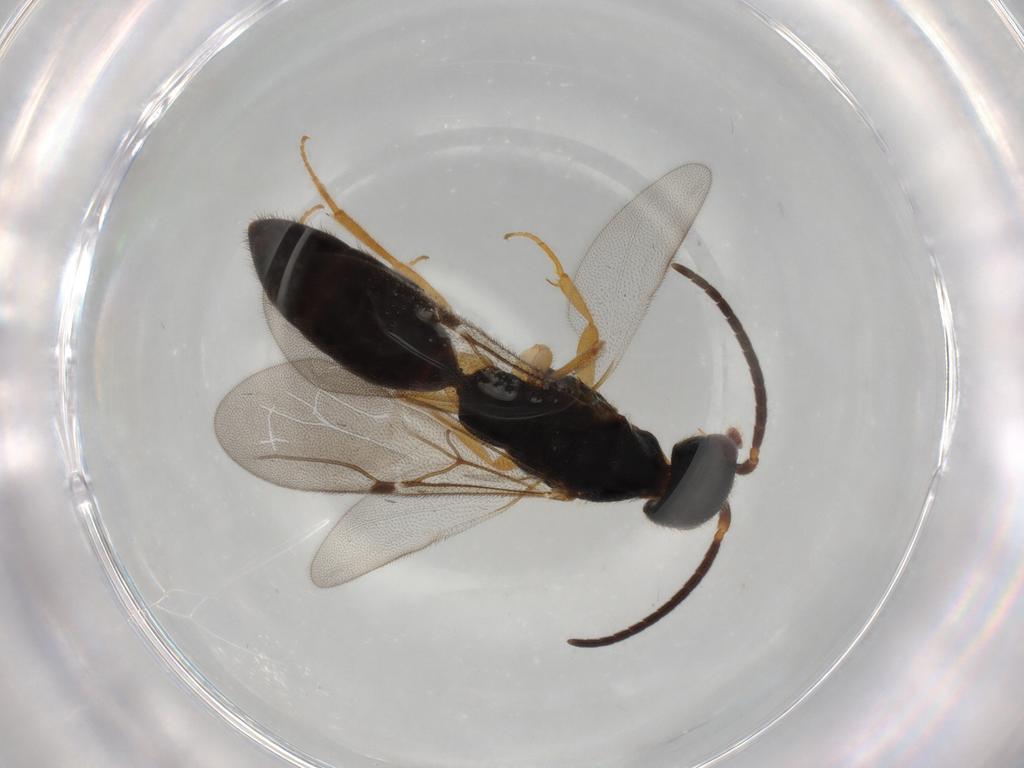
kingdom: Animalia
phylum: Arthropoda
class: Insecta
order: Hymenoptera
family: Bethylidae
